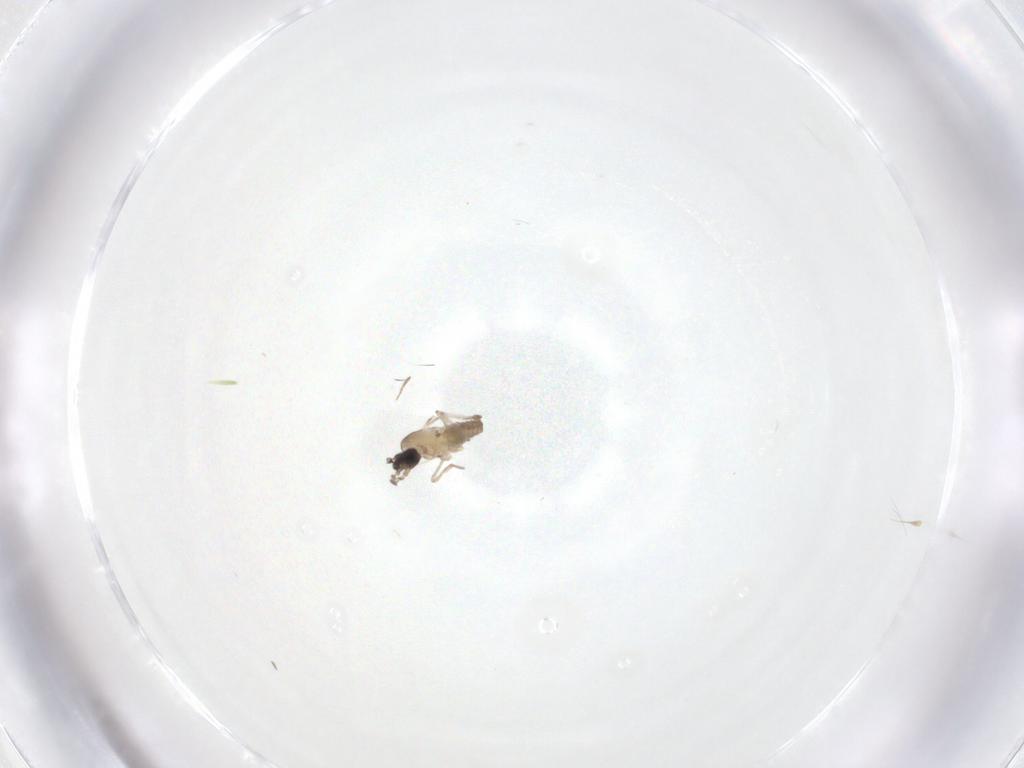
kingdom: Animalia
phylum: Arthropoda
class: Insecta
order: Diptera
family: Cecidomyiidae
